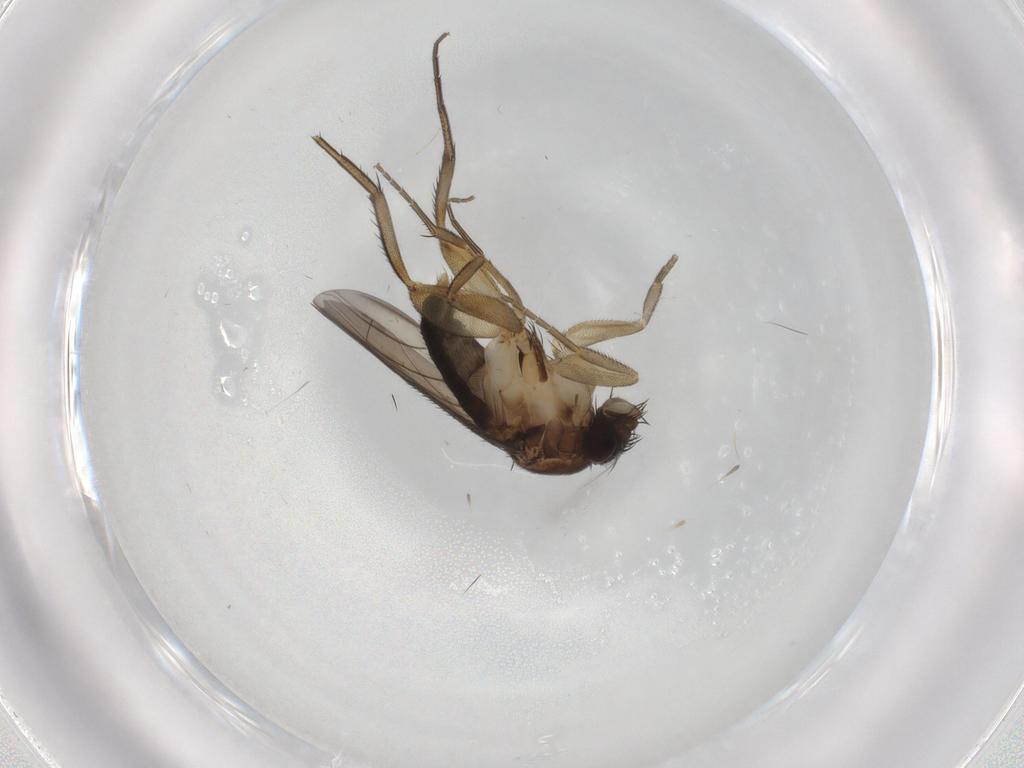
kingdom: Animalia
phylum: Arthropoda
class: Insecta
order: Diptera
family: Phoridae
